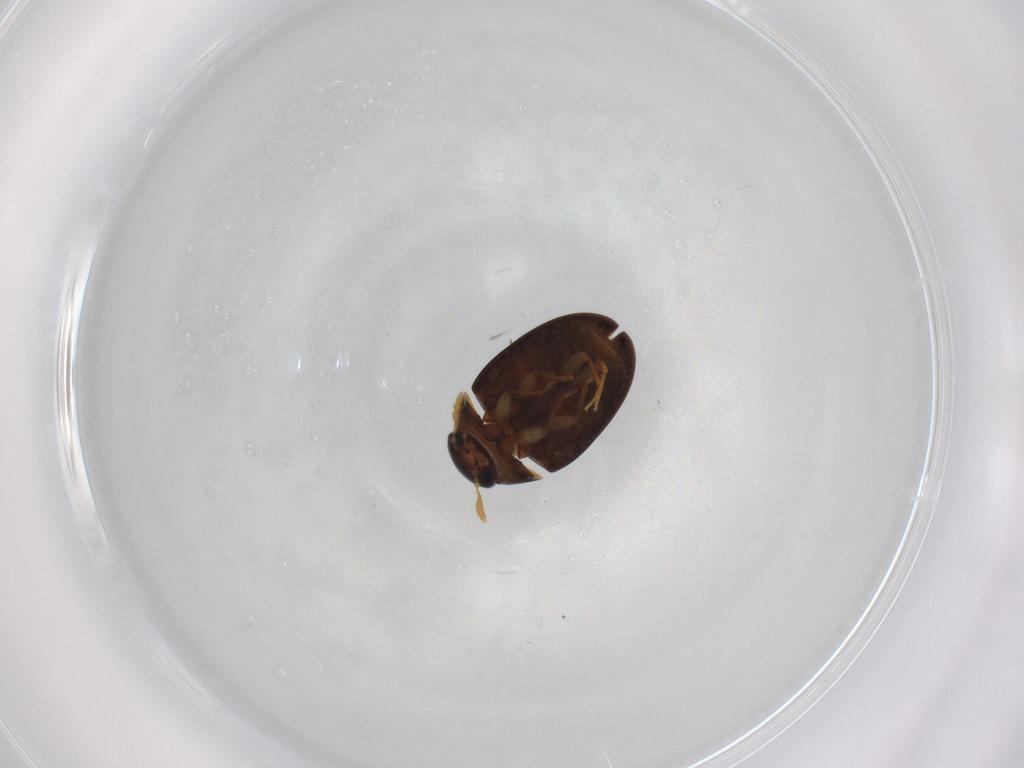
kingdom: Animalia
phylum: Arthropoda
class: Insecta
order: Coleoptera
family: Phalacridae
